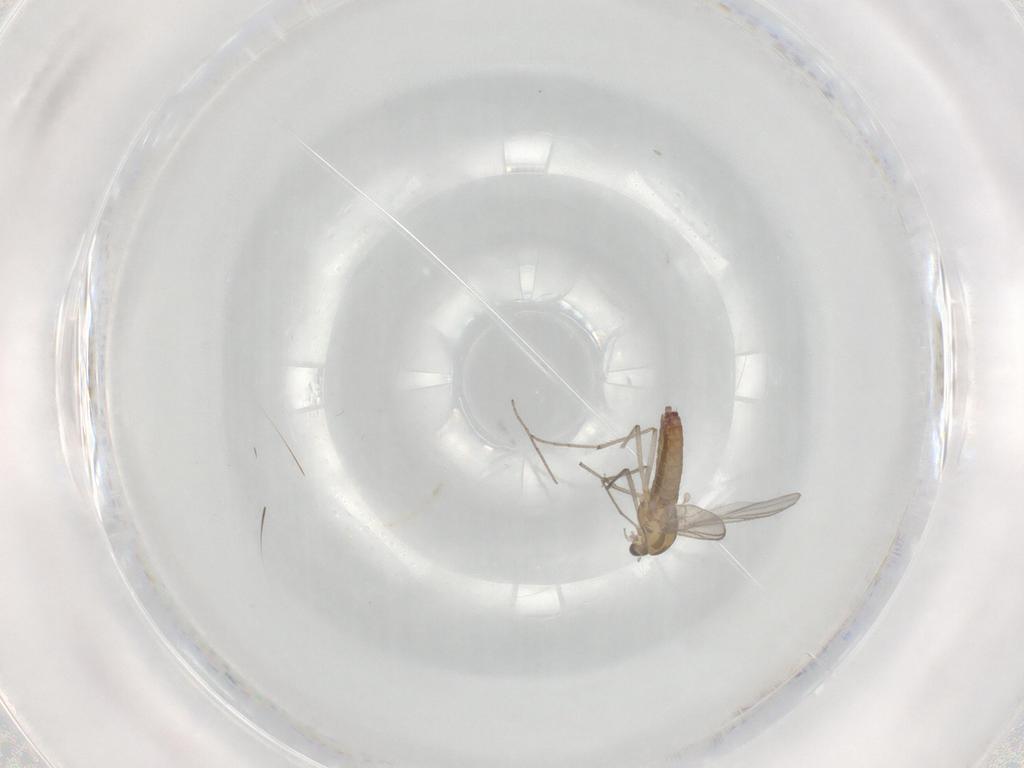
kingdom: Animalia
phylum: Arthropoda
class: Insecta
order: Diptera
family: Chironomidae
